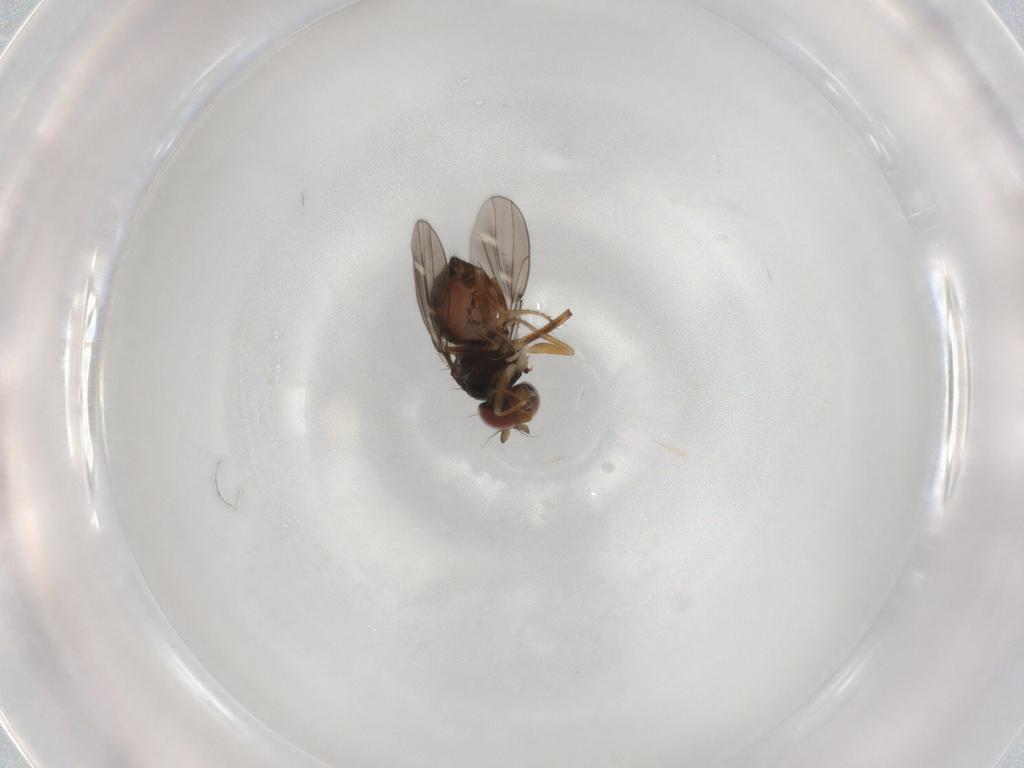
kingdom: Animalia
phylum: Arthropoda
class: Insecta
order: Diptera
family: Ephydridae
